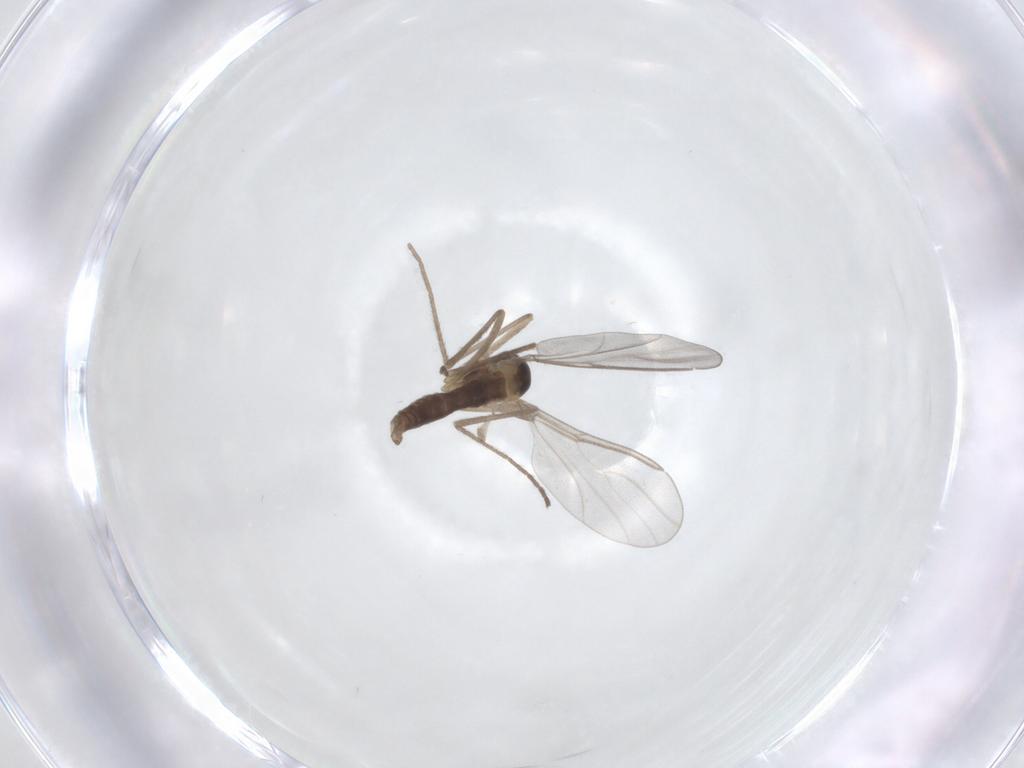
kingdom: Animalia
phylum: Arthropoda
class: Insecta
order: Diptera
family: Cecidomyiidae
